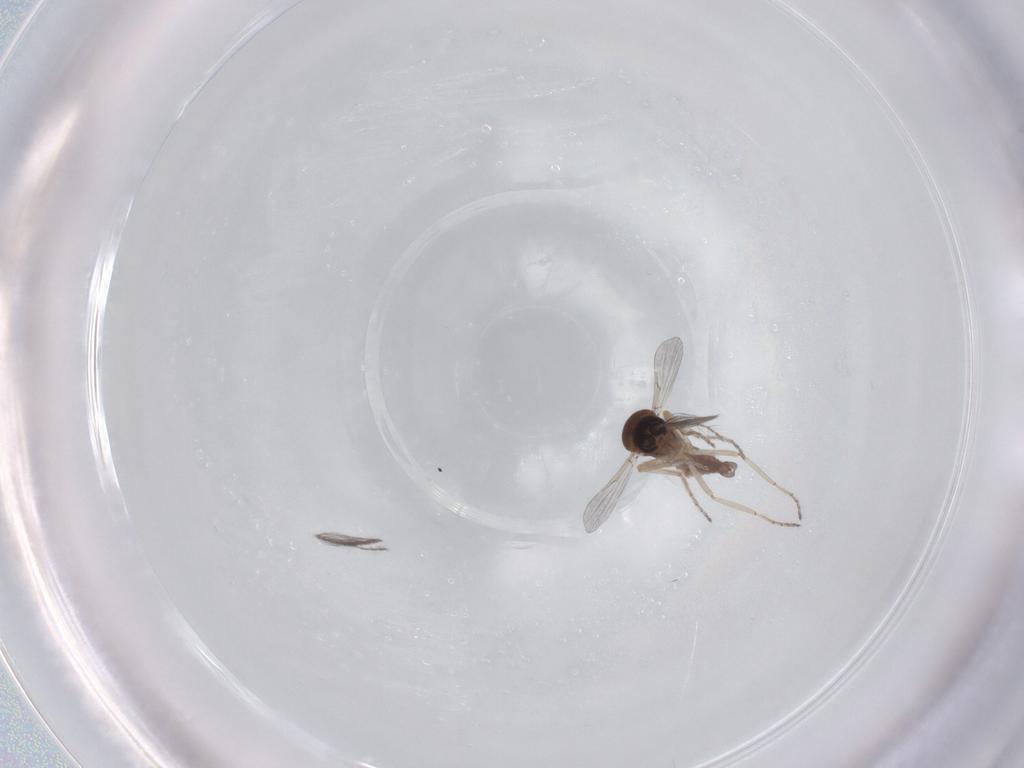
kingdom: Animalia
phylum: Arthropoda
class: Insecta
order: Diptera
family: Ceratopogonidae
